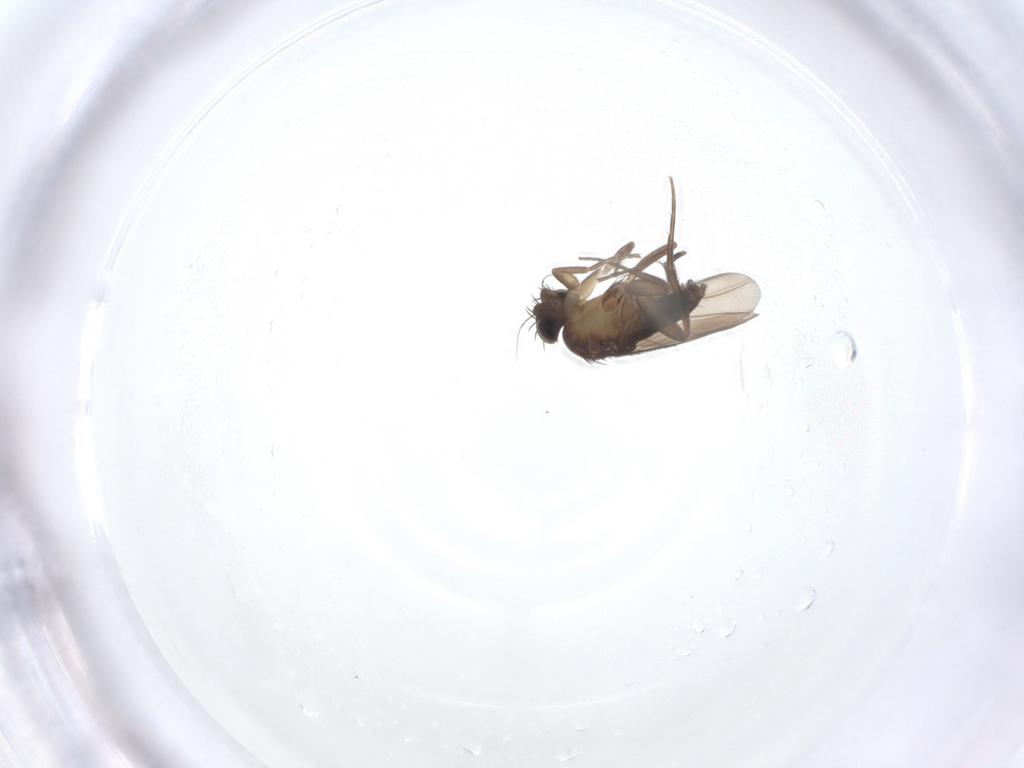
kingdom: Animalia
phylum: Arthropoda
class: Insecta
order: Diptera
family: Phoridae
